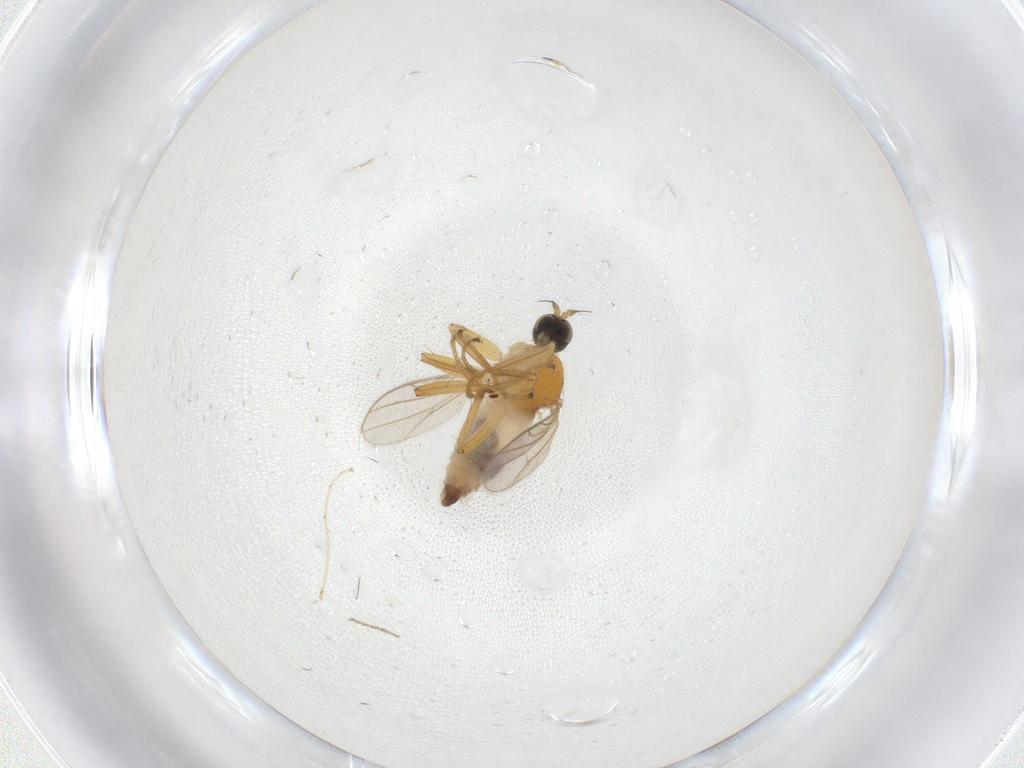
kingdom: Animalia
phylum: Arthropoda
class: Insecta
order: Diptera
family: Hybotidae
